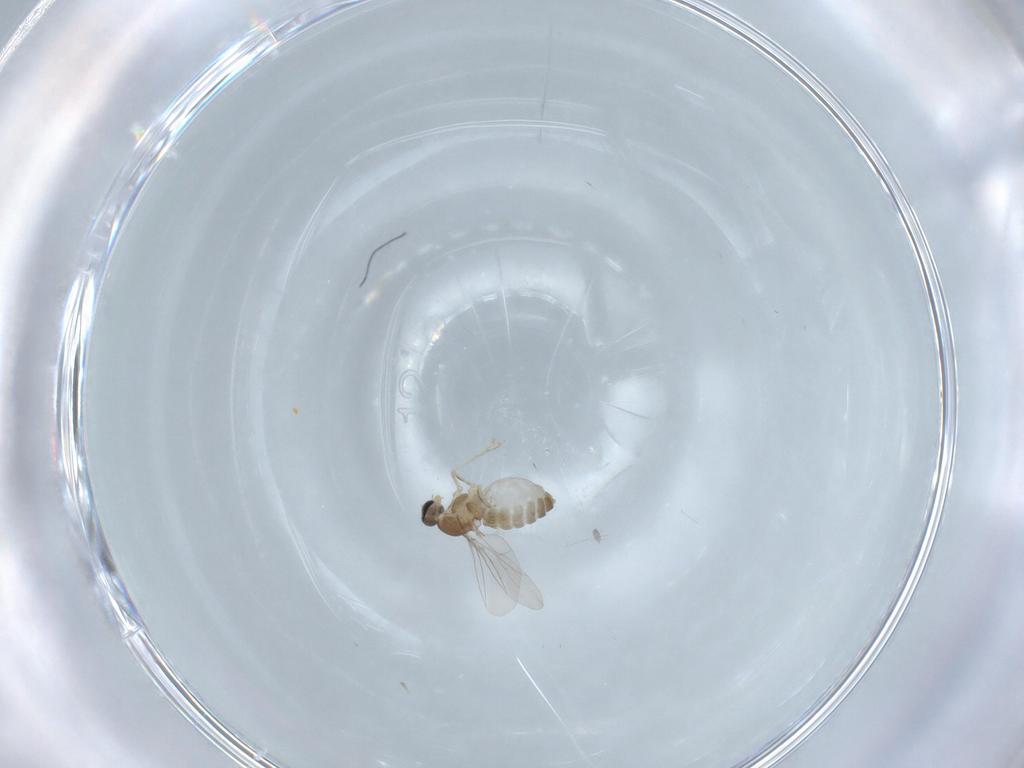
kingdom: Animalia
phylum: Arthropoda
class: Insecta
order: Diptera
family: Cecidomyiidae
